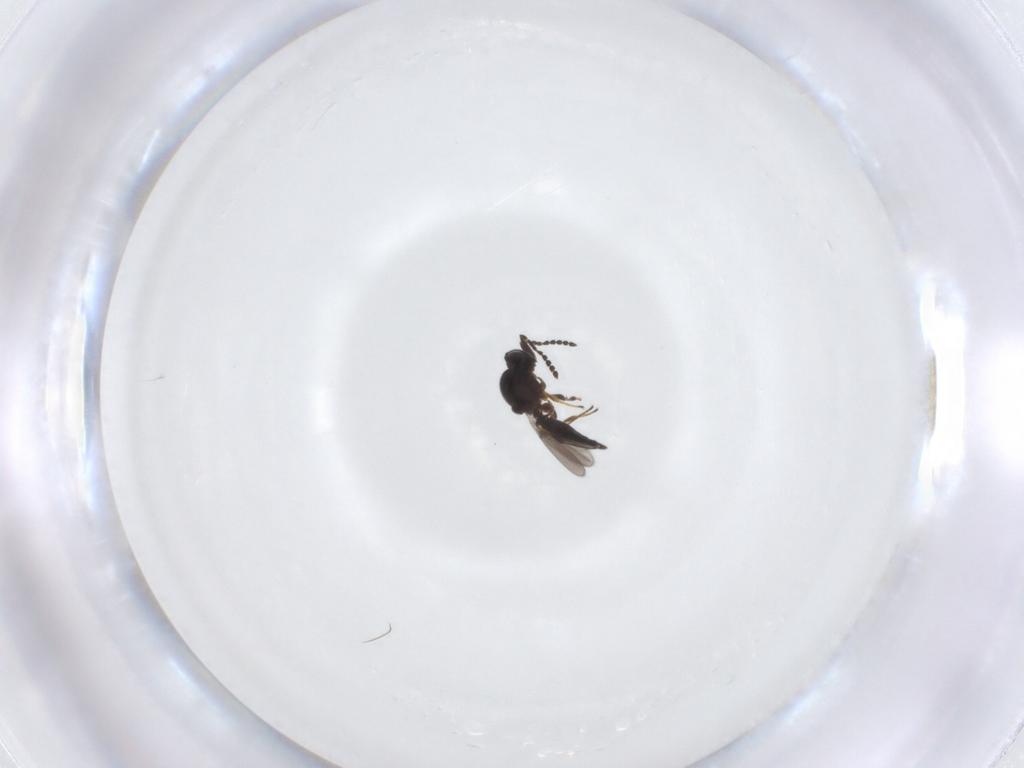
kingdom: Animalia
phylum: Arthropoda
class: Insecta
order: Hymenoptera
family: Platygastridae
